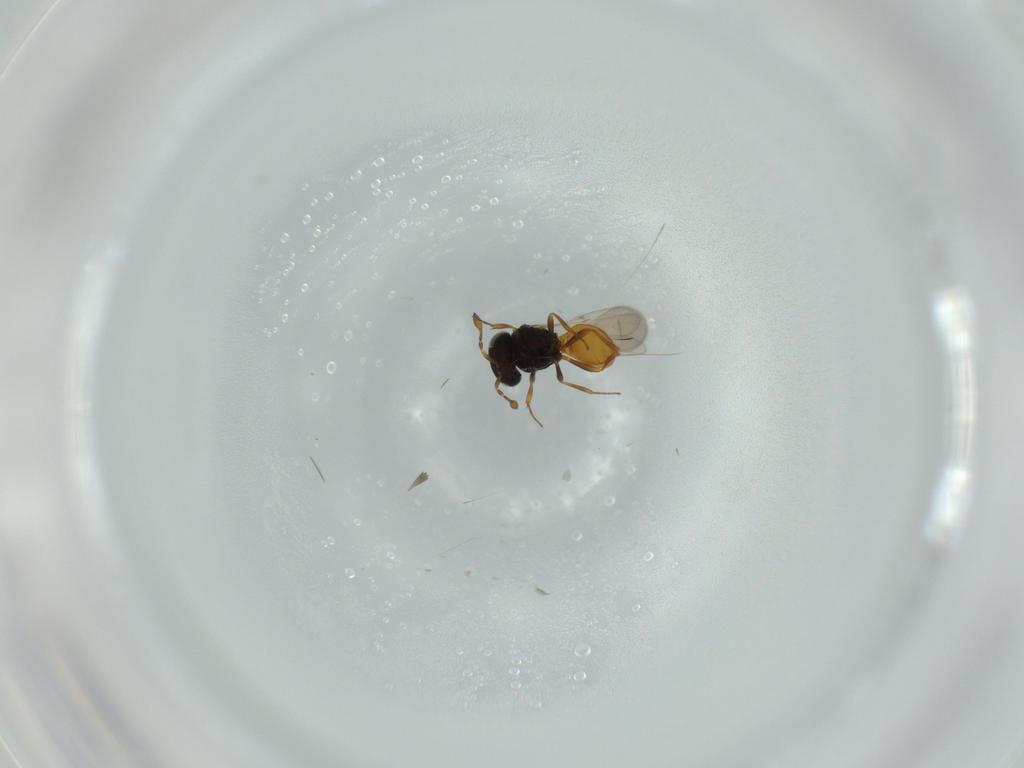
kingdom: Animalia
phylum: Arthropoda
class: Insecta
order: Hymenoptera
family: Scelionidae
